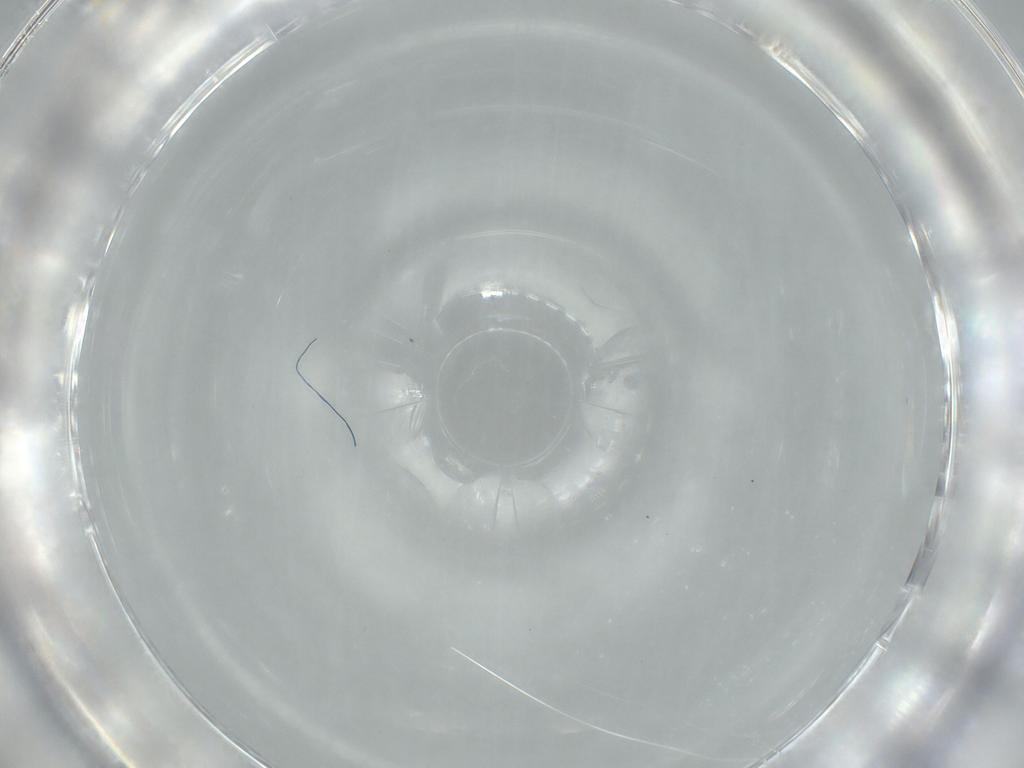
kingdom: Animalia
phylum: Arthropoda
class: Insecta
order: Hymenoptera
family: Trichogrammatidae
